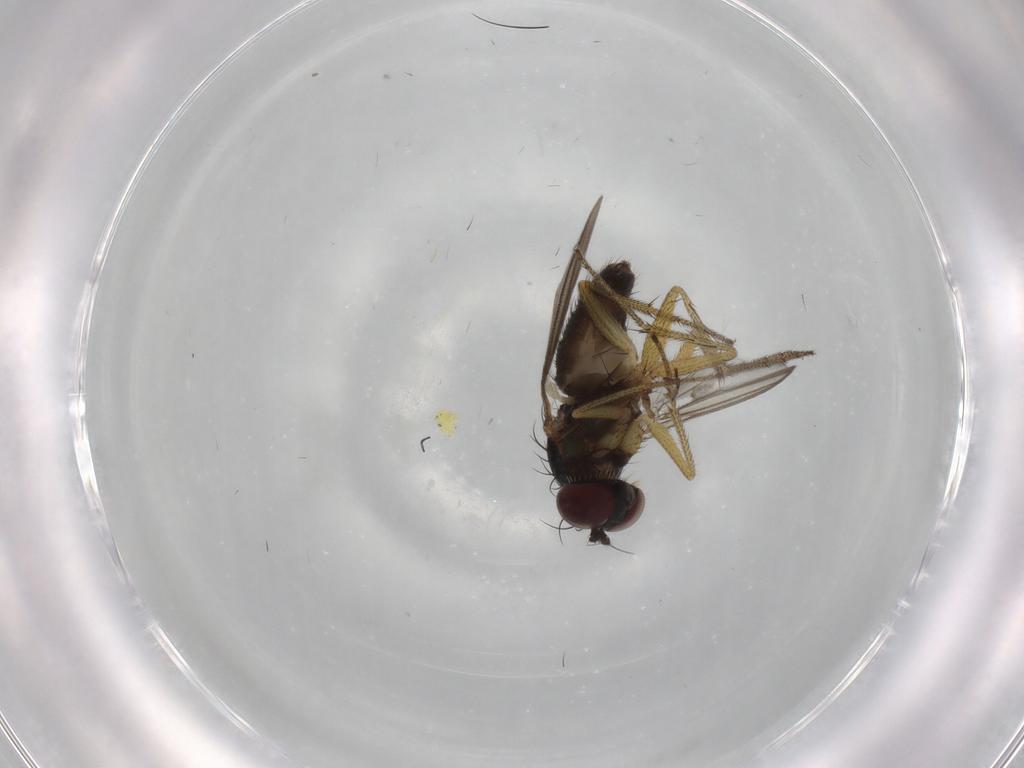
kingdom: Animalia
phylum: Arthropoda
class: Insecta
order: Diptera
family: Dolichopodidae
